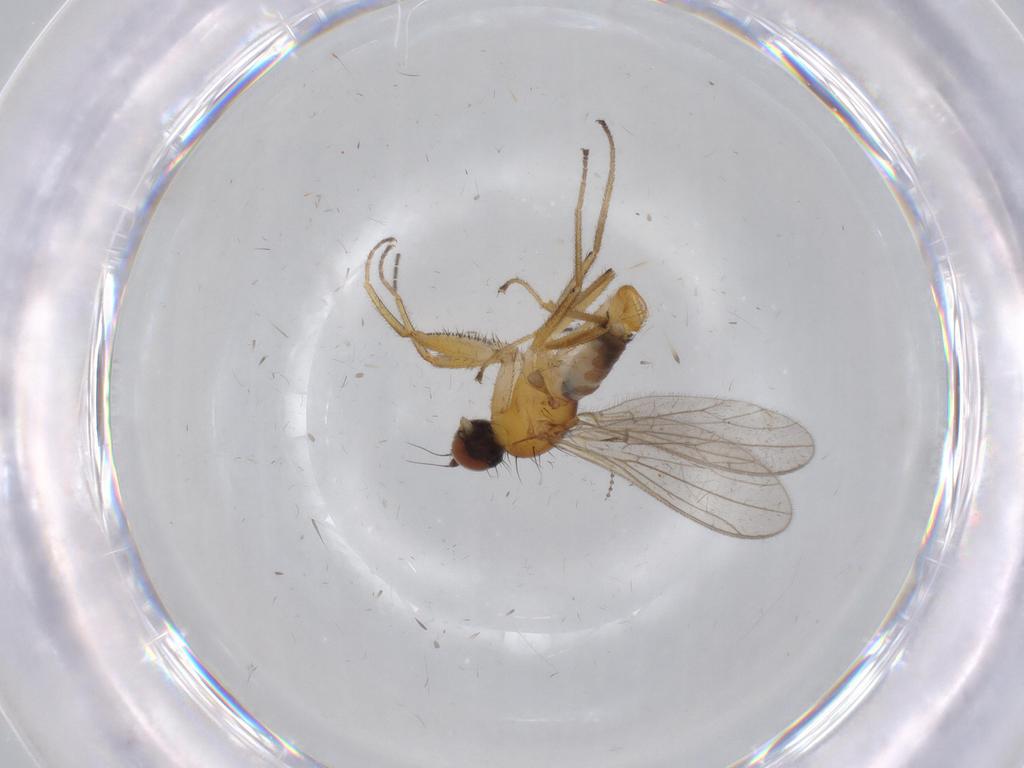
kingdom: Animalia
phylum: Arthropoda
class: Insecta
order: Diptera
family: Empididae
